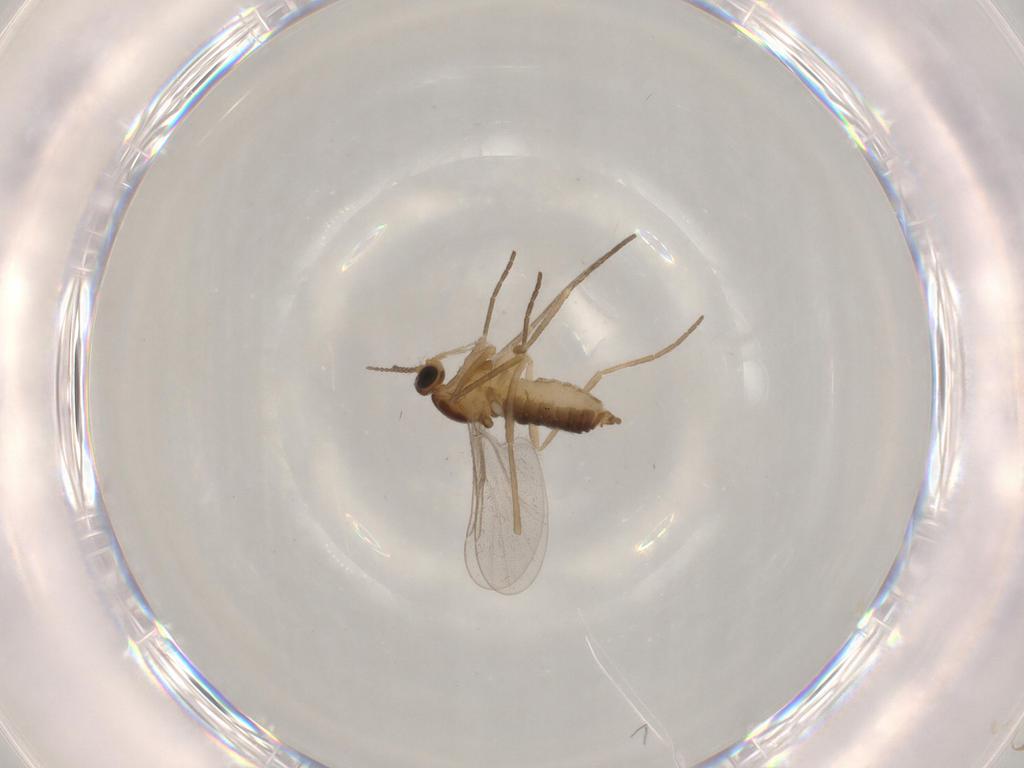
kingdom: Animalia
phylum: Arthropoda
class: Insecta
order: Diptera
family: Cecidomyiidae
